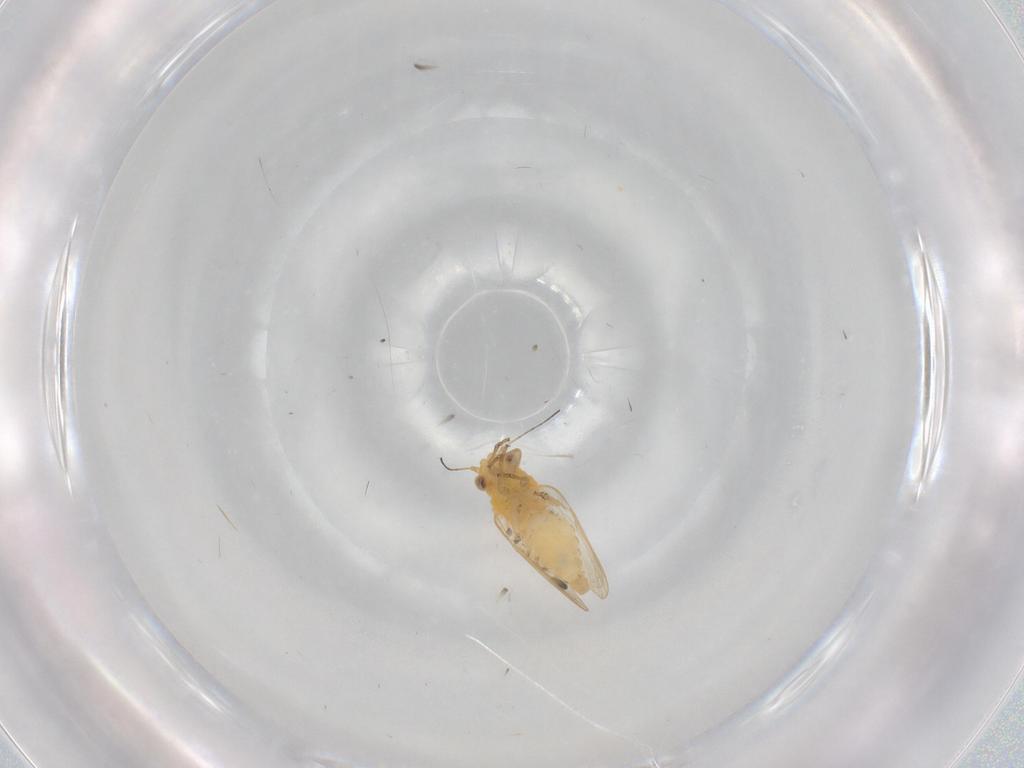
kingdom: Animalia
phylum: Arthropoda
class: Insecta
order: Hemiptera
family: Psyllidae
